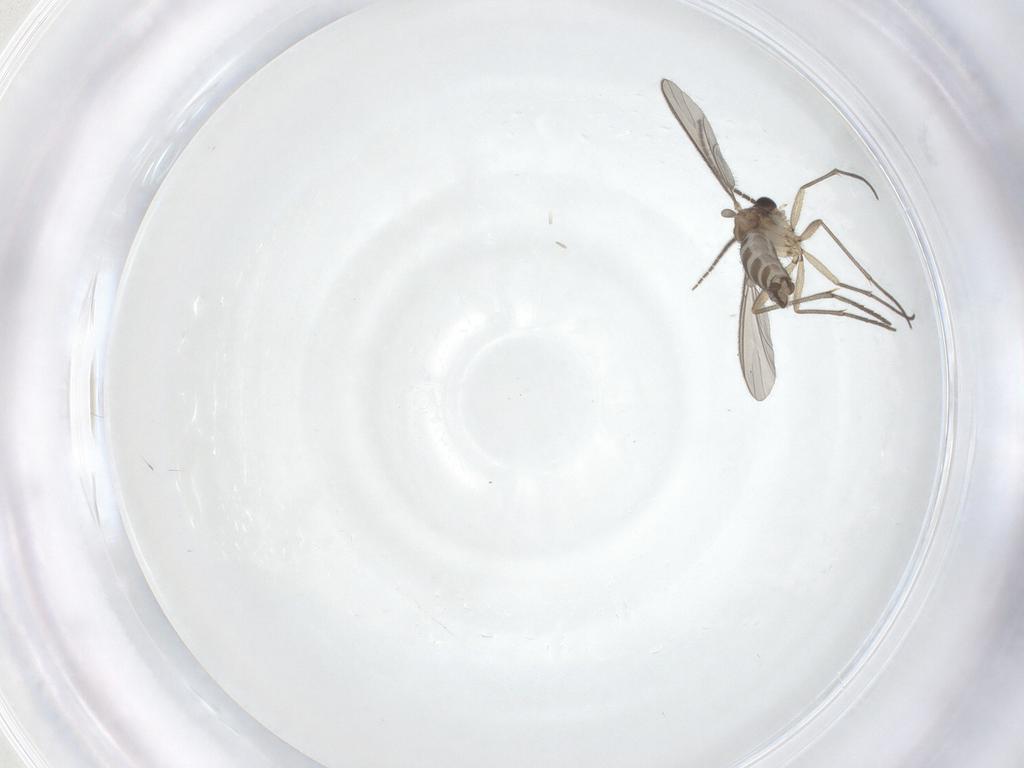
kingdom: Animalia
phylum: Arthropoda
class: Insecta
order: Diptera
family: Sciaridae
